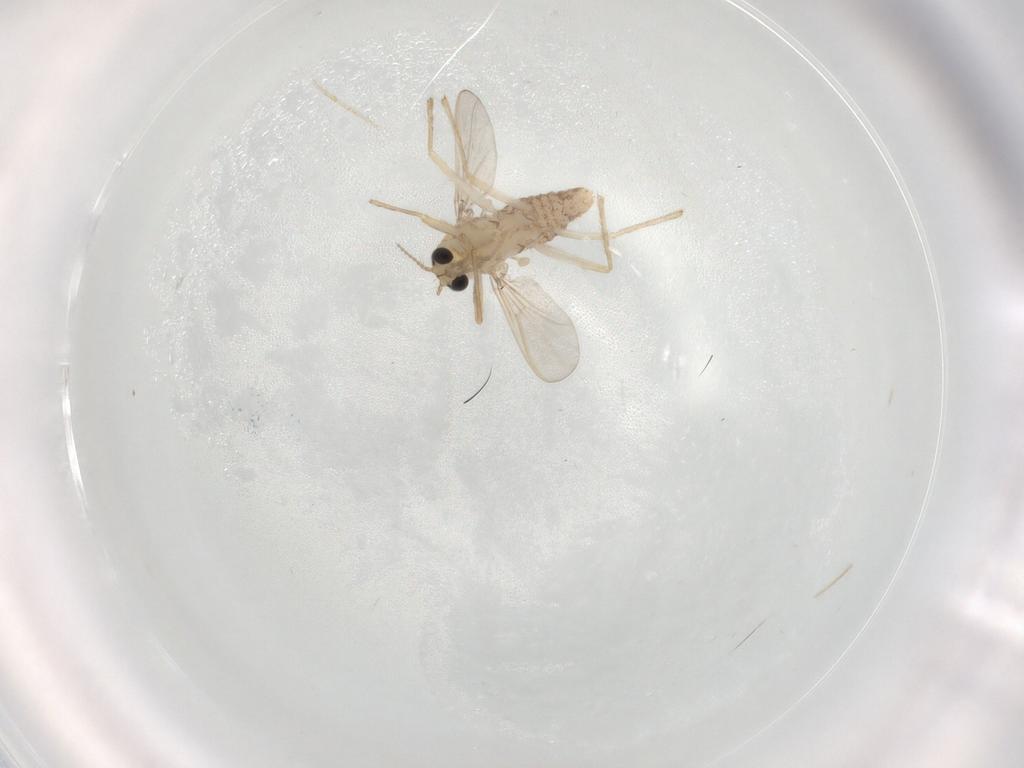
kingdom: Animalia
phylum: Arthropoda
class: Insecta
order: Diptera
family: Chironomidae
